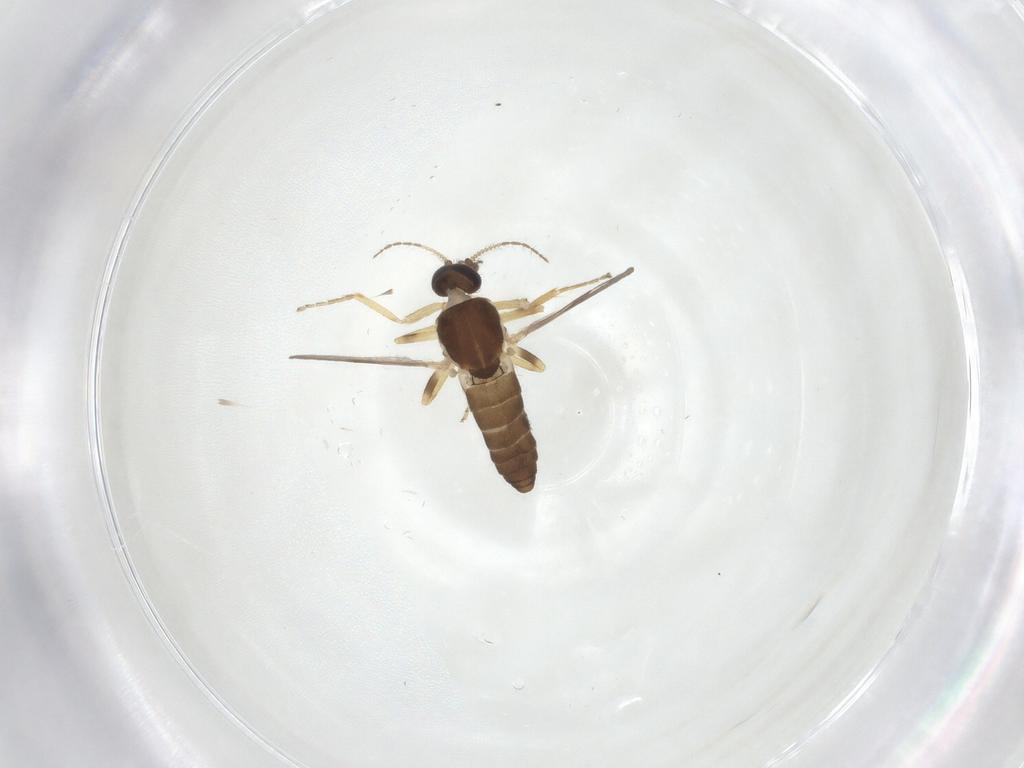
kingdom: Animalia
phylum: Arthropoda
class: Insecta
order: Diptera
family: Ceratopogonidae
